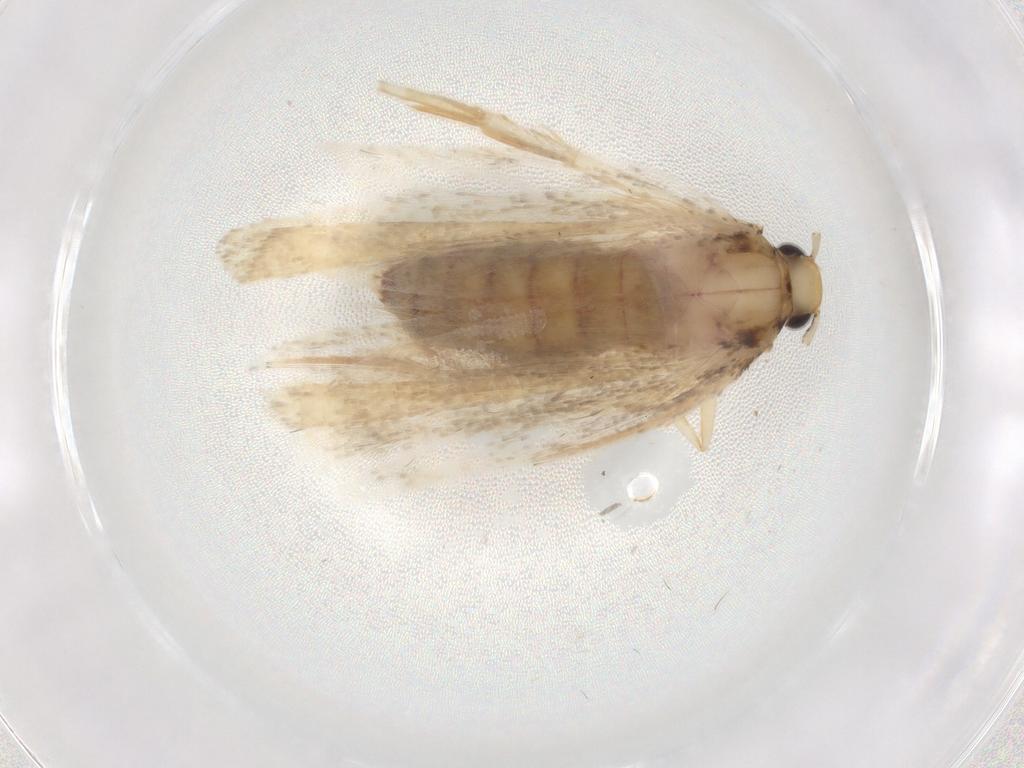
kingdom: Animalia
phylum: Arthropoda
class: Insecta
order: Lepidoptera
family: Lecithoceridae
